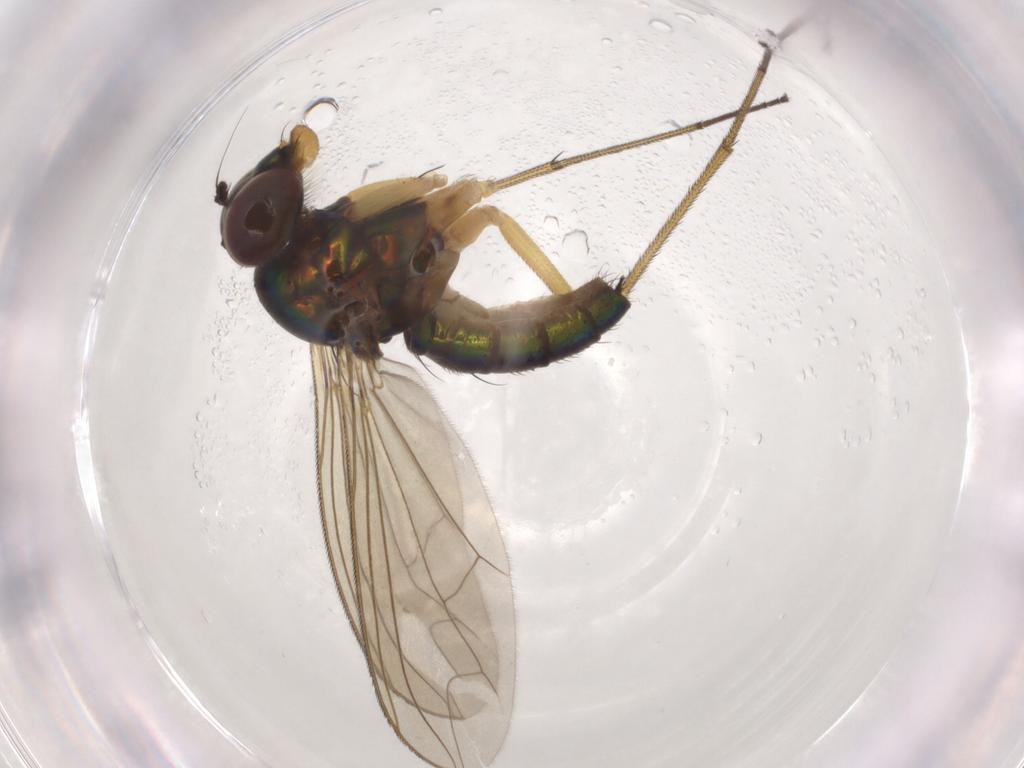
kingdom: Animalia
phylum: Arthropoda
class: Insecta
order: Diptera
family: Dolichopodidae
